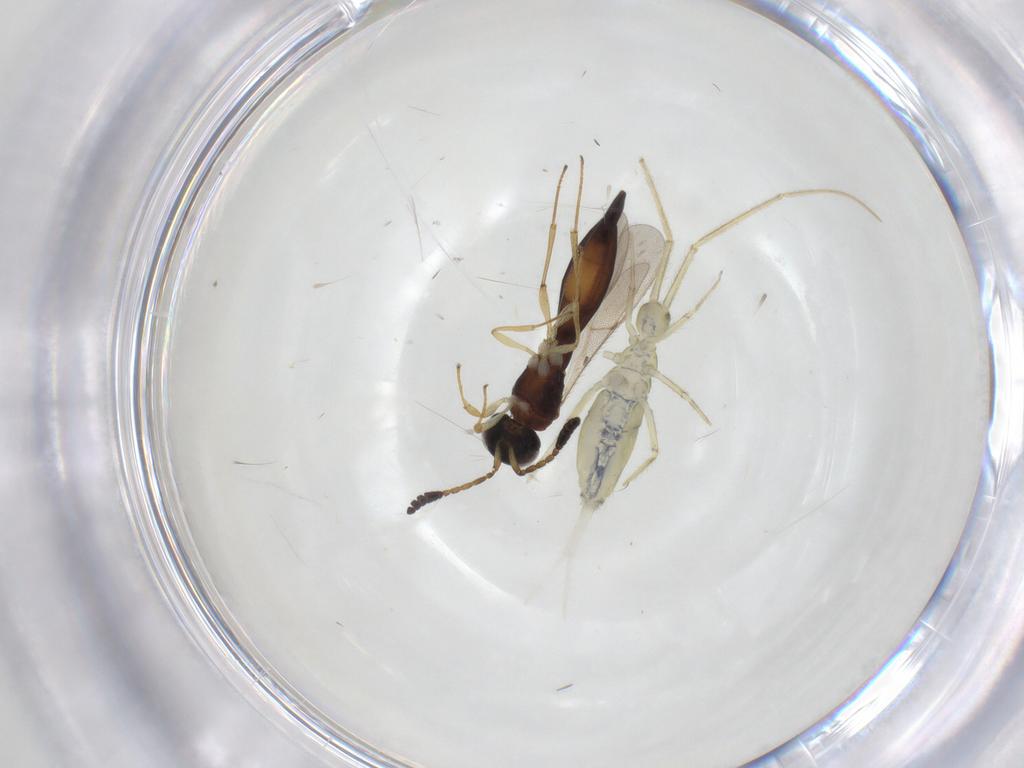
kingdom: Animalia
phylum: Arthropoda
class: Insecta
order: Hymenoptera
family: Scelionidae
